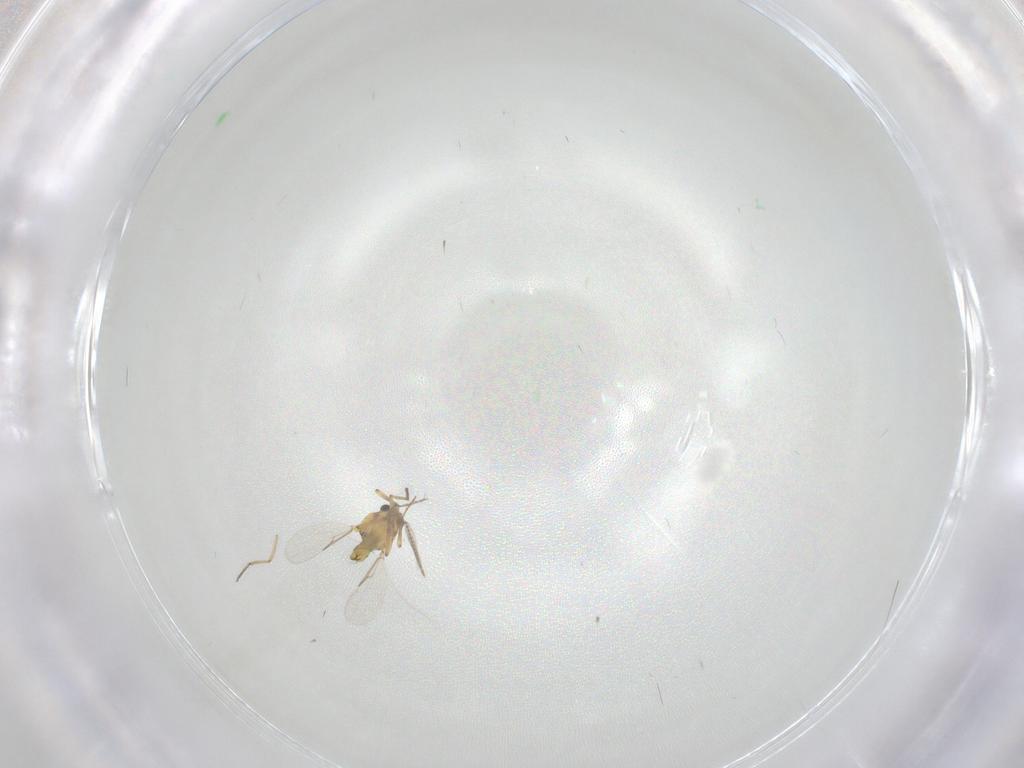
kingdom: Animalia
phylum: Arthropoda
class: Insecta
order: Diptera
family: Ceratopogonidae
